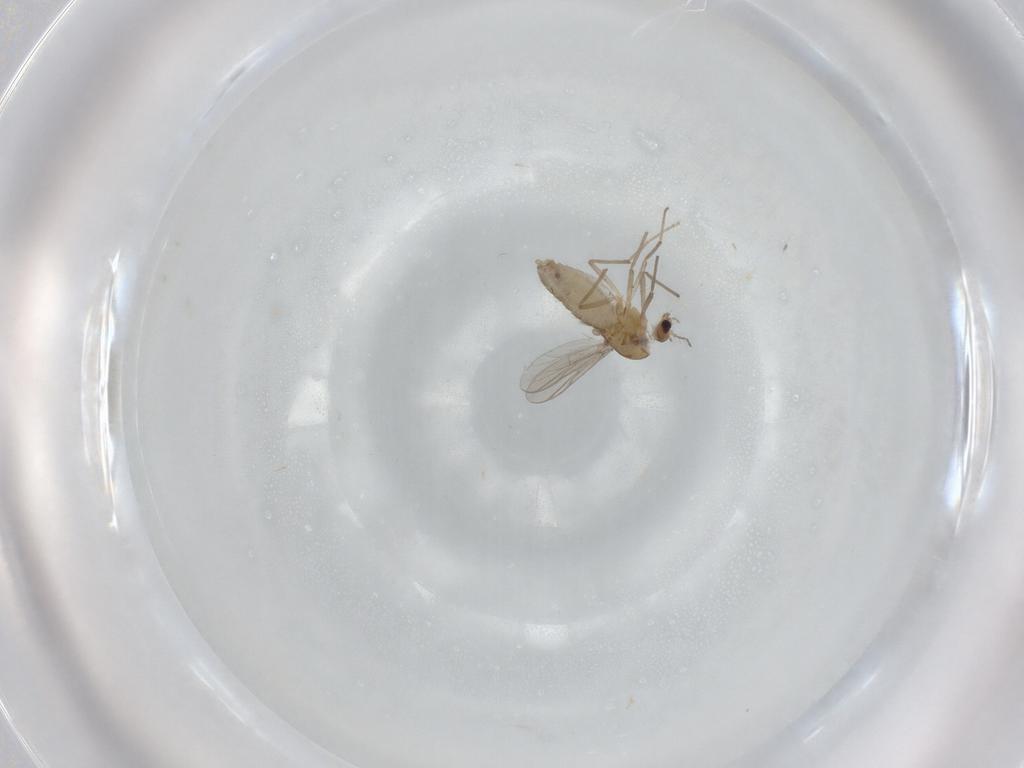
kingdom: Animalia
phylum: Arthropoda
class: Insecta
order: Diptera
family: Chironomidae
